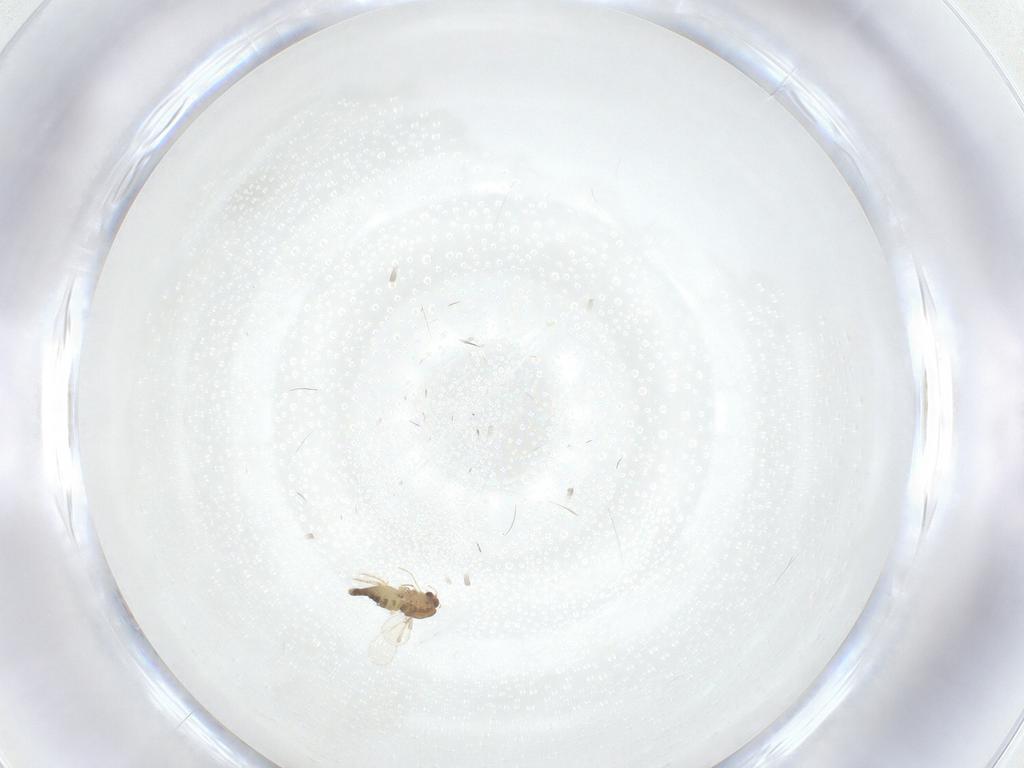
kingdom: Animalia
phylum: Arthropoda
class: Insecta
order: Diptera
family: Chironomidae
